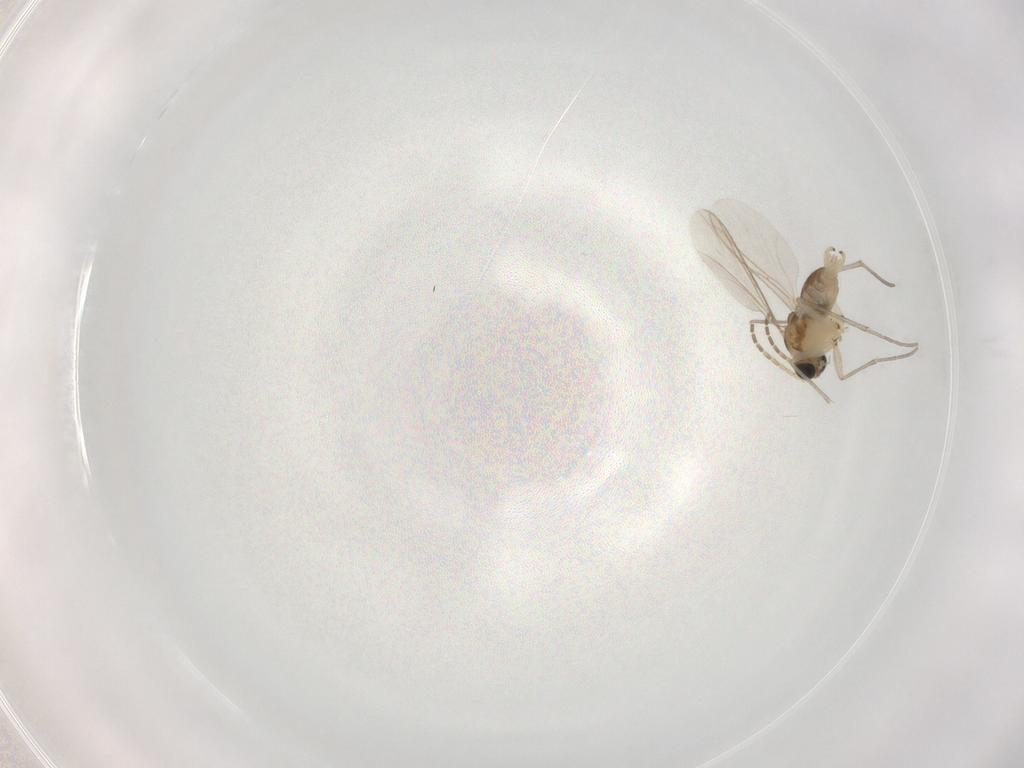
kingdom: Animalia
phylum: Arthropoda
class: Insecta
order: Diptera
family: Sciaridae
